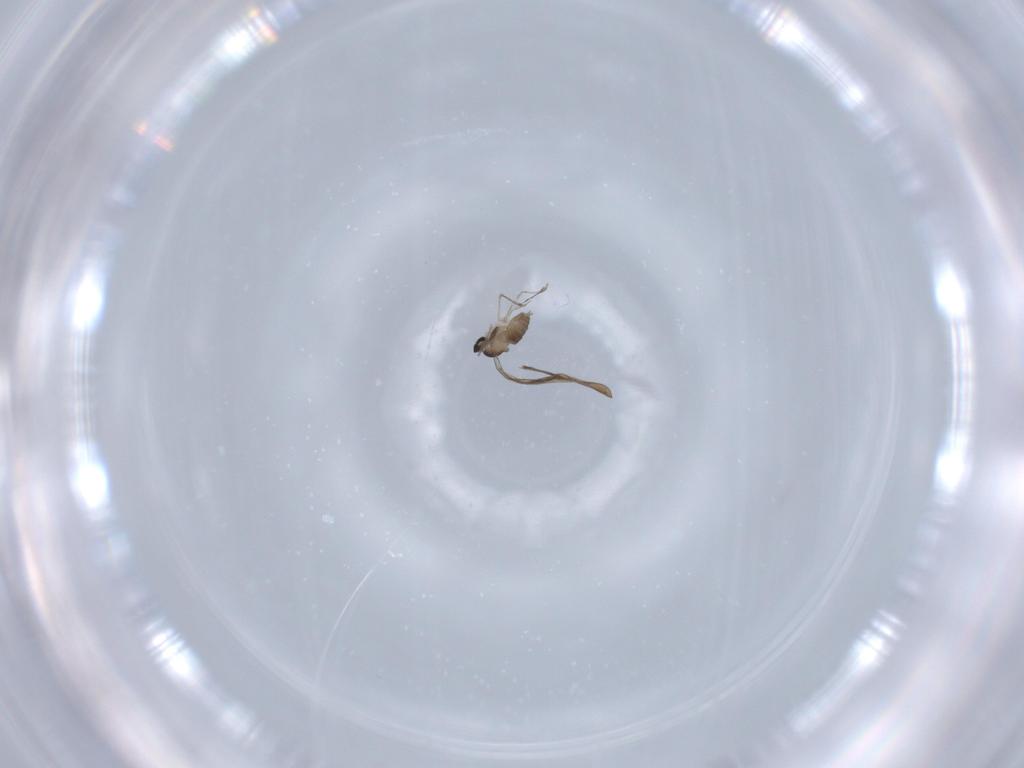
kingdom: Animalia
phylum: Arthropoda
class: Insecta
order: Diptera
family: Cecidomyiidae
